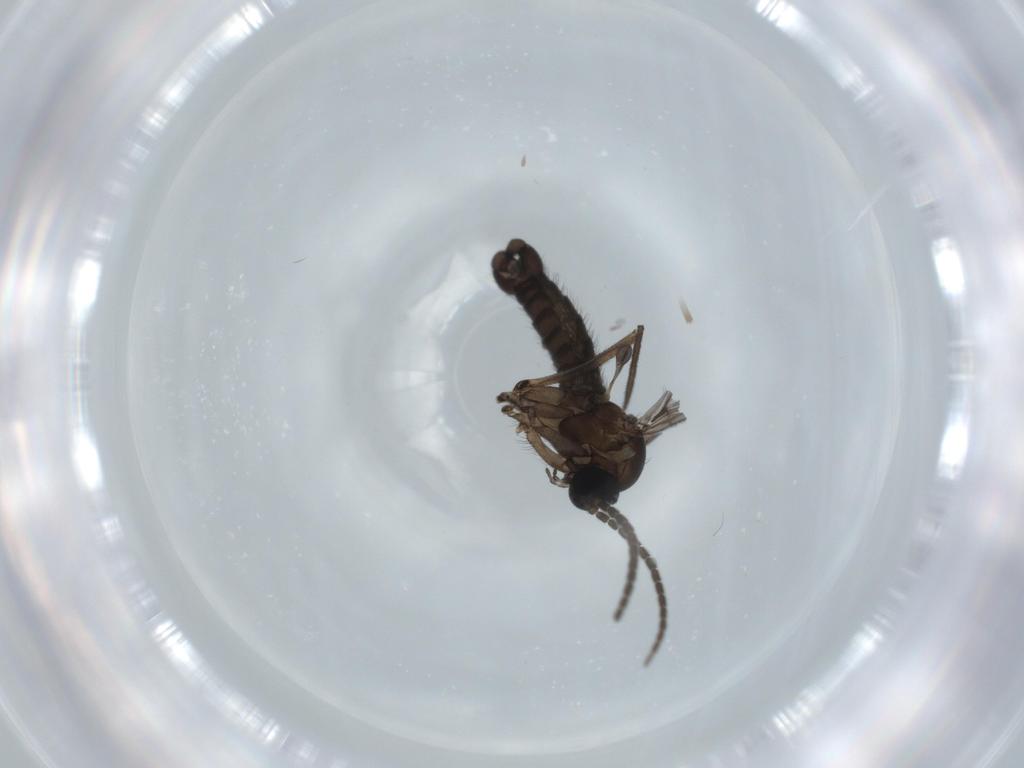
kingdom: Animalia
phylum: Arthropoda
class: Insecta
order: Diptera
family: Sciaridae
